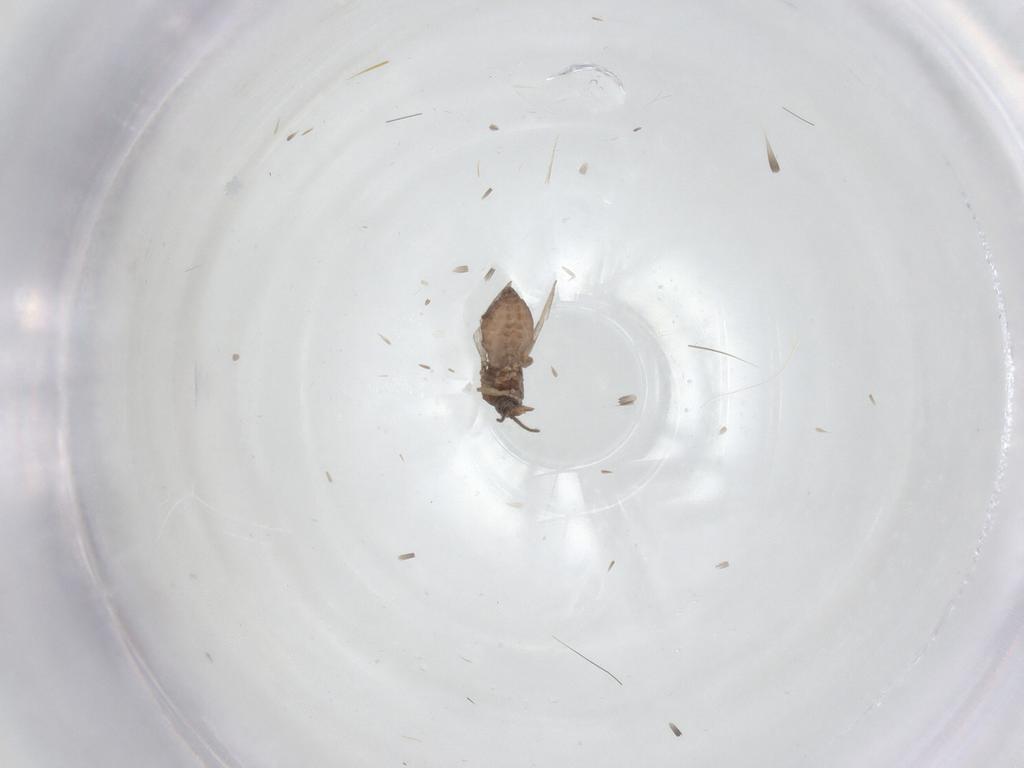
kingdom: Animalia
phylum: Arthropoda
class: Insecta
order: Diptera
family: Ceratopogonidae
